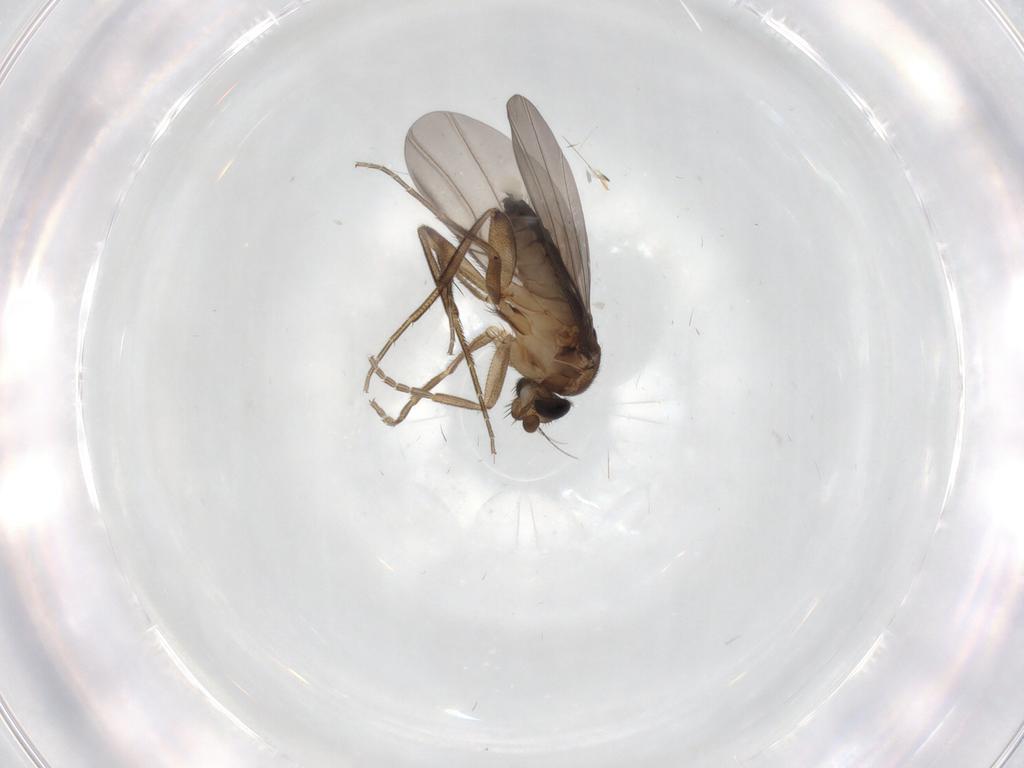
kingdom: Animalia
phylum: Arthropoda
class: Insecta
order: Diptera
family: Phoridae
